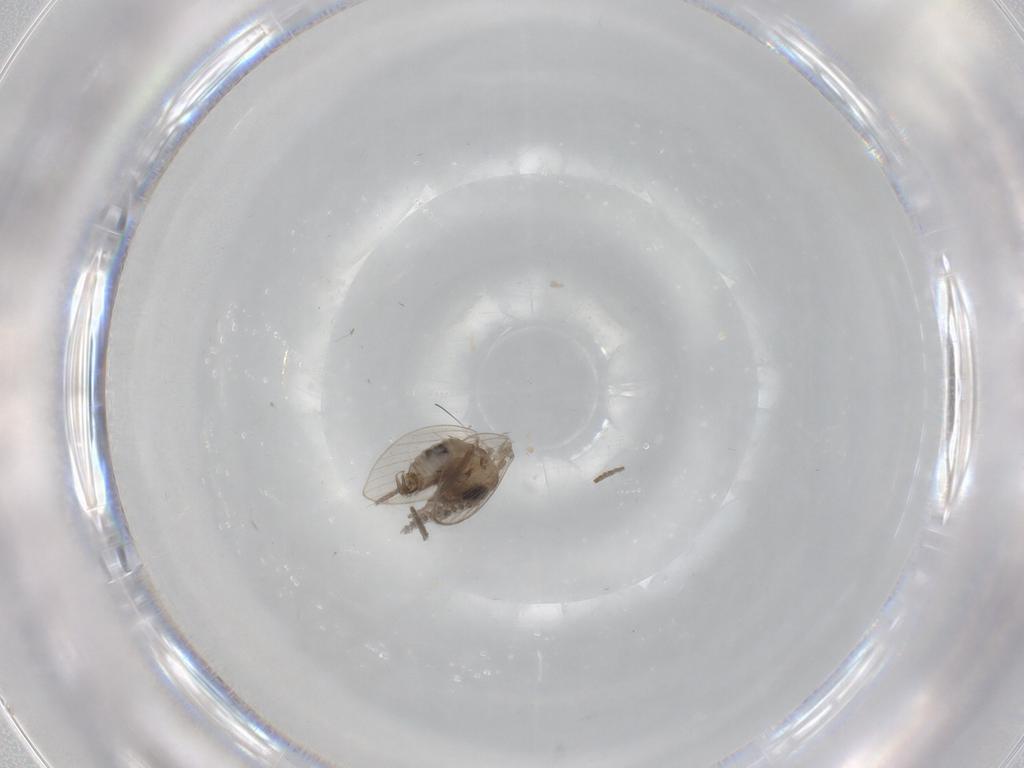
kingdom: Animalia
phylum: Arthropoda
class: Insecta
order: Diptera
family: Psychodidae
